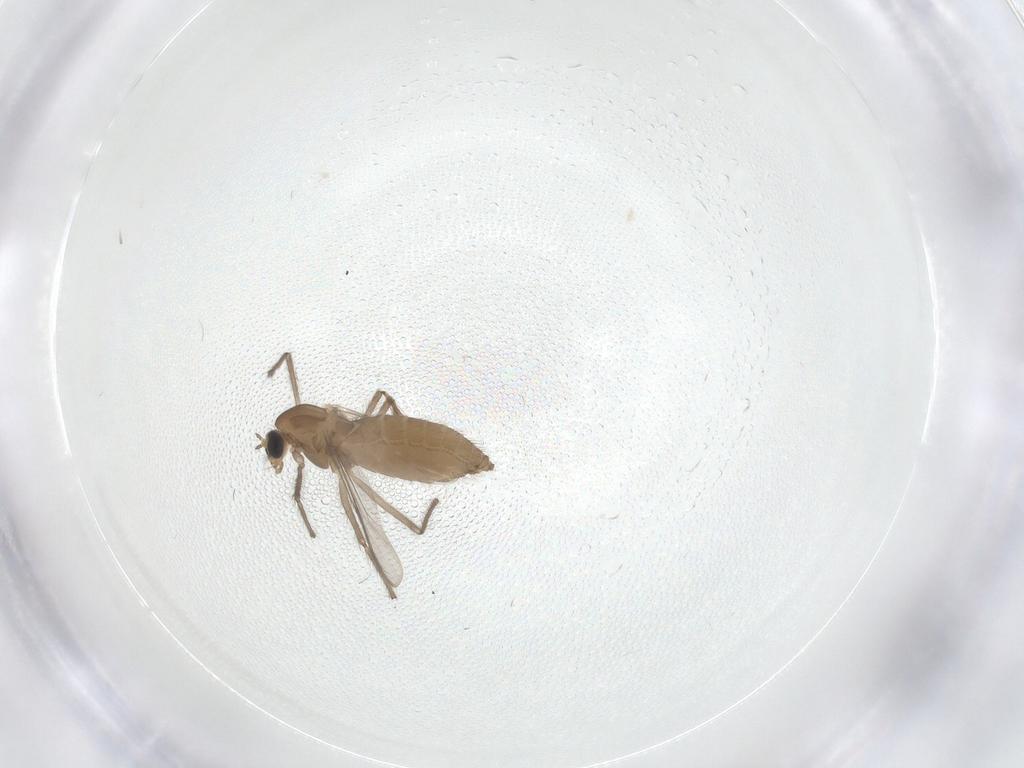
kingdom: Animalia
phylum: Arthropoda
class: Insecta
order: Diptera
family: Chironomidae
